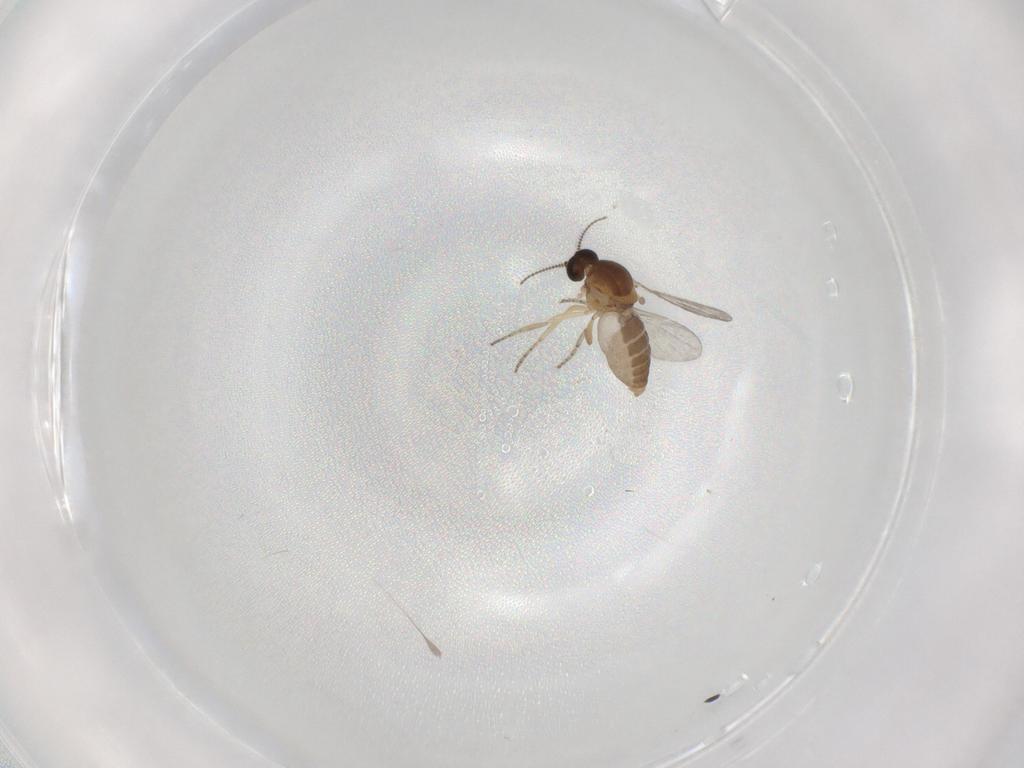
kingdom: Animalia
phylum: Arthropoda
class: Insecta
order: Diptera
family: Ceratopogonidae
